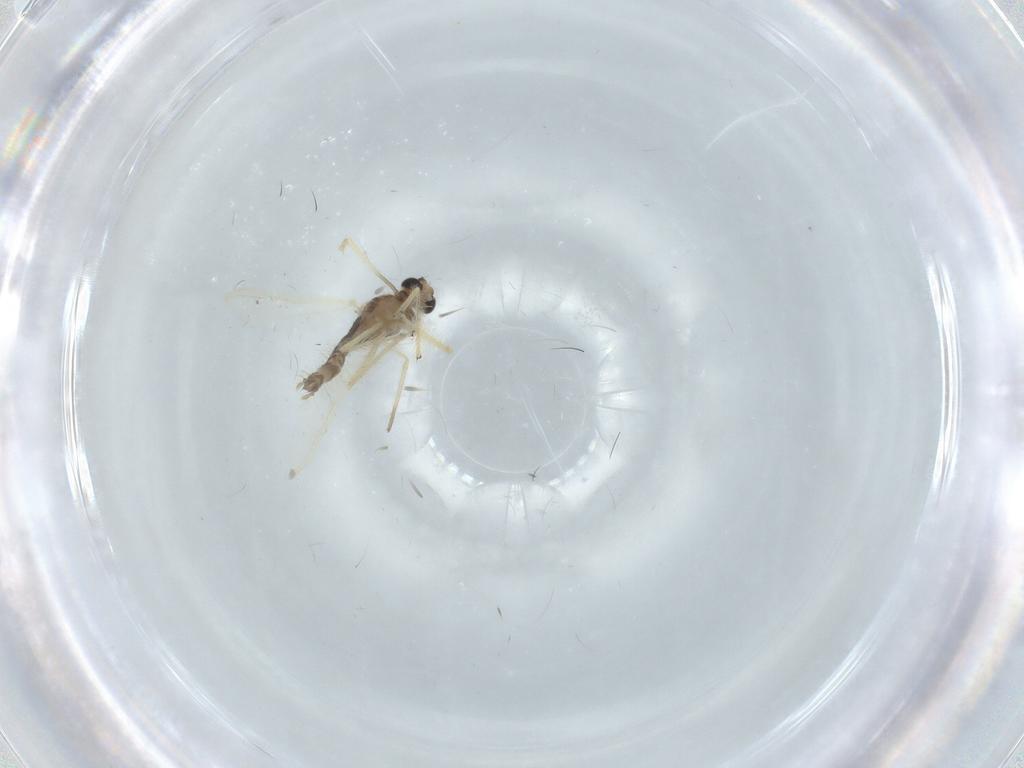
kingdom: Animalia
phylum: Arthropoda
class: Insecta
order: Diptera
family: Chironomidae
